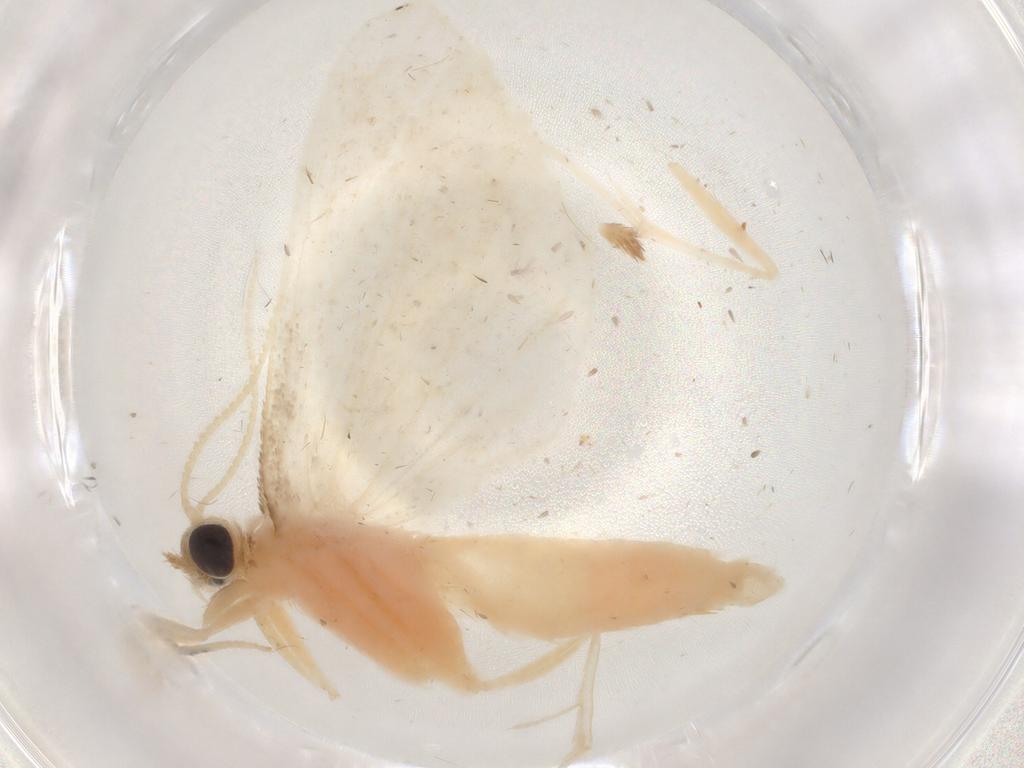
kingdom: Animalia
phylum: Arthropoda
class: Insecta
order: Lepidoptera
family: Crambidae
